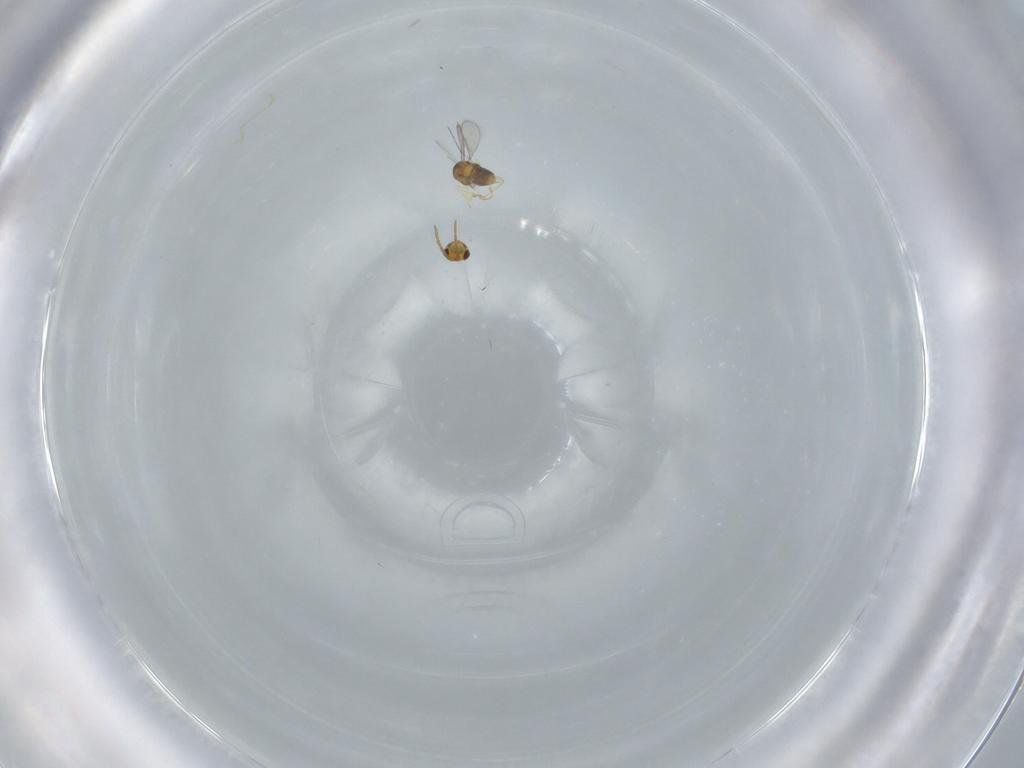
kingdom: Animalia
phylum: Arthropoda
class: Insecta
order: Hymenoptera
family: Aphelinidae
